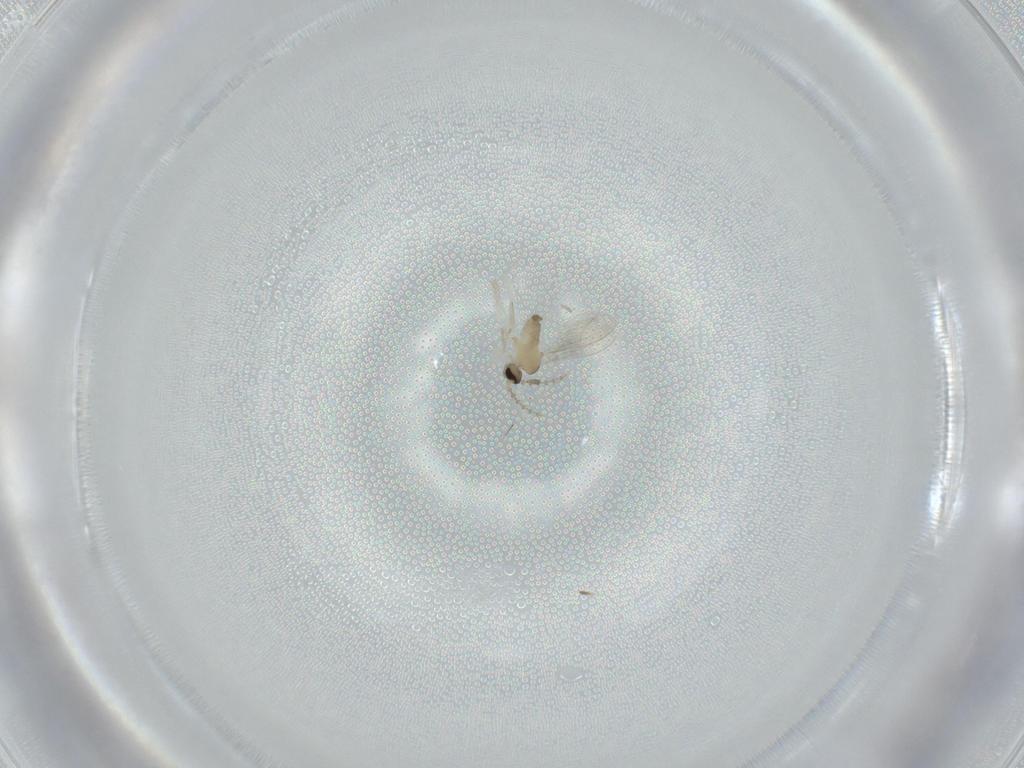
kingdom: Animalia
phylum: Arthropoda
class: Insecta
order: Diptera
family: Cecidomyiidae
